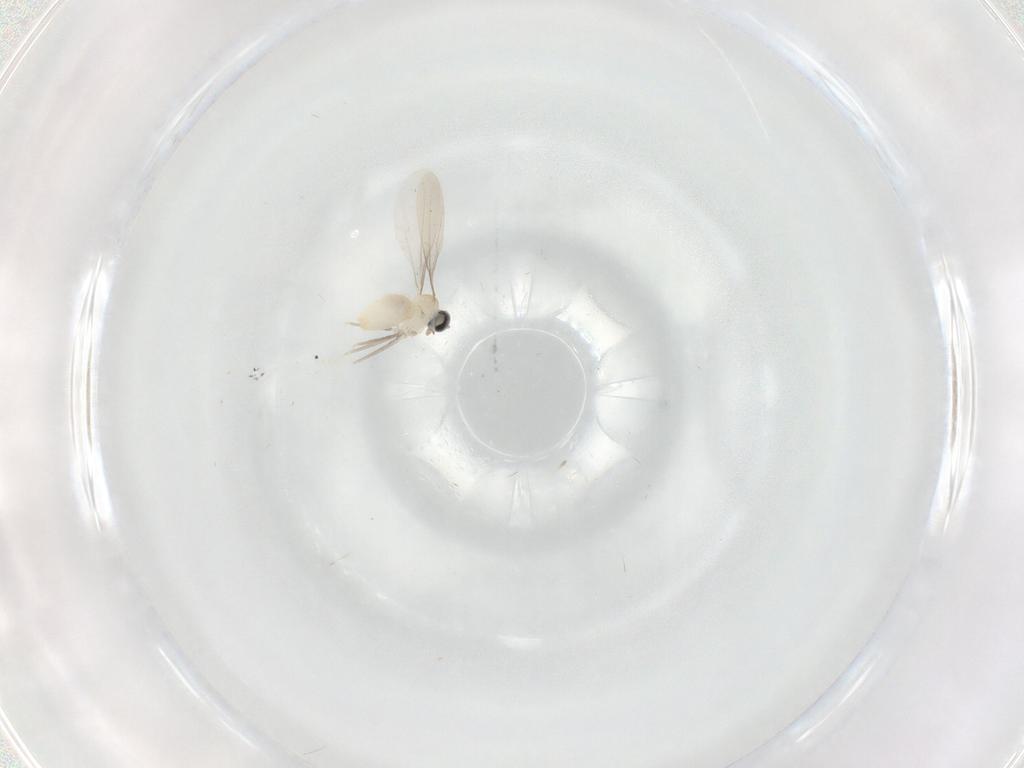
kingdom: Animalia
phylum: Arthropoda
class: Insecta
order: Diptera
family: Cecidomyiidae
